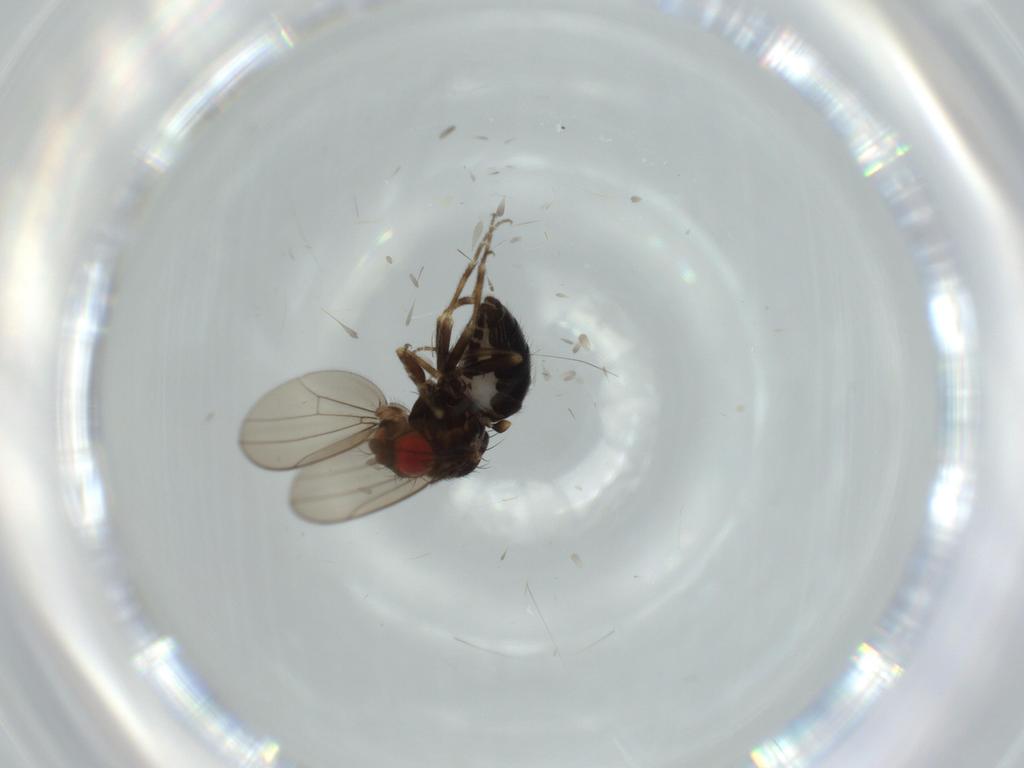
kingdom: Animalia
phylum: Arthropoda
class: Insecta
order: Diptera
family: Drosophilidae
